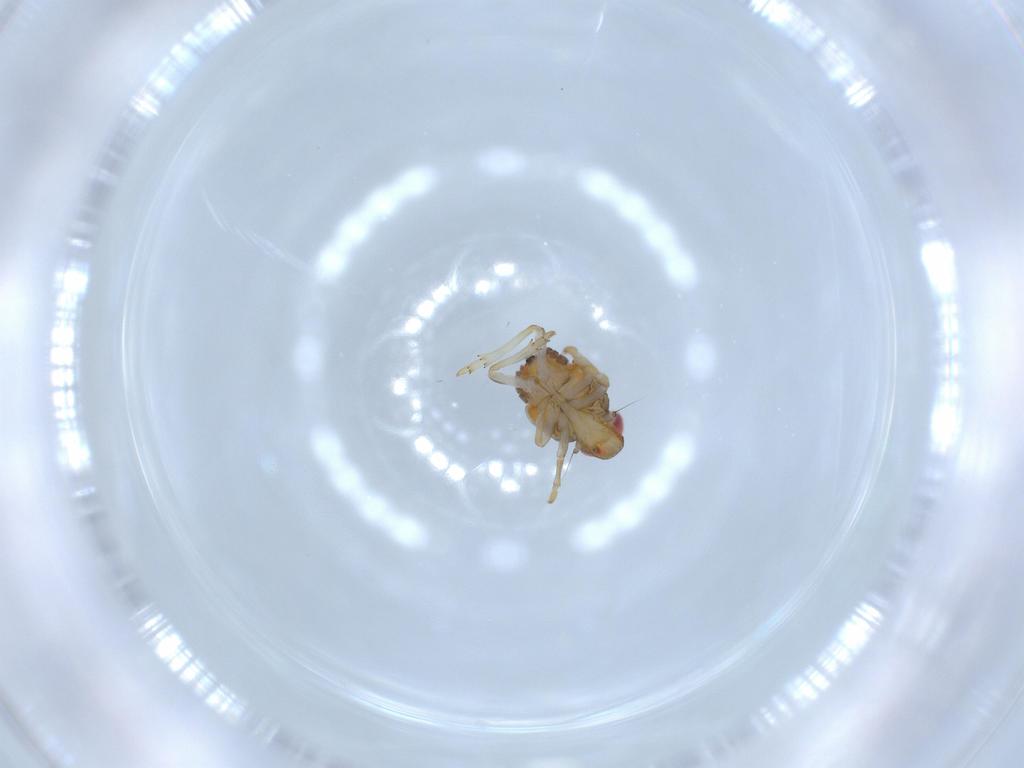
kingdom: Animalia
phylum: Arthropoda
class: Insecta
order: Hemiptera
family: Issidae
